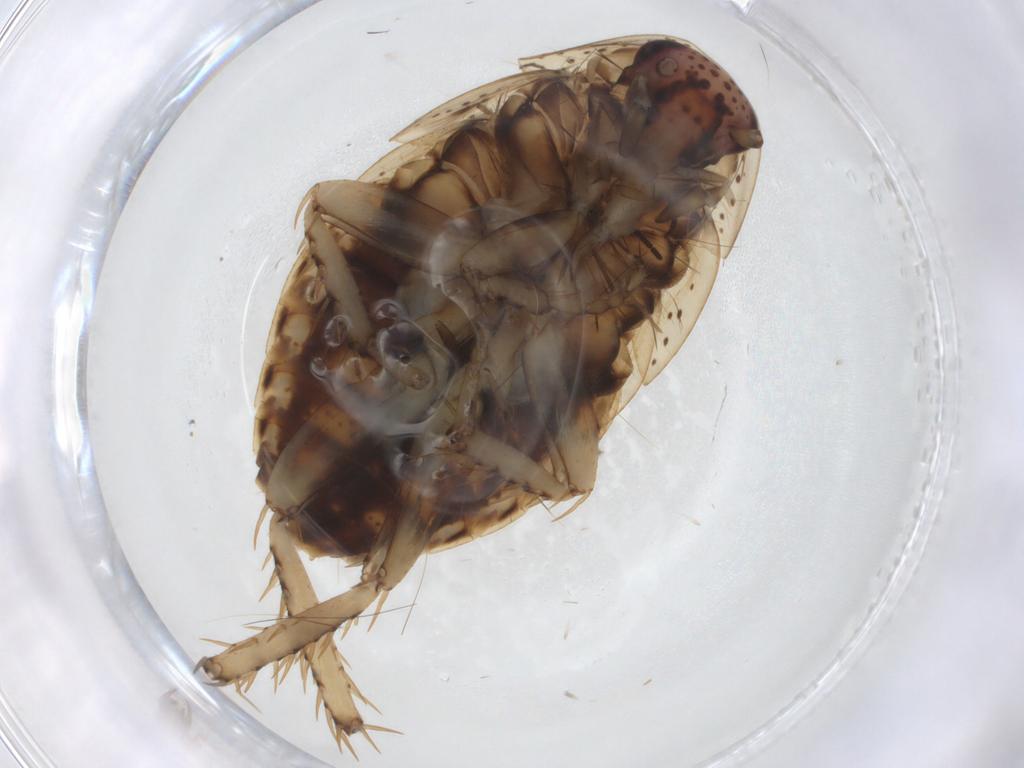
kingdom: Animalia
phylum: Arthropoda
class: Insecta
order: Blattodea
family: Ectobiidae
